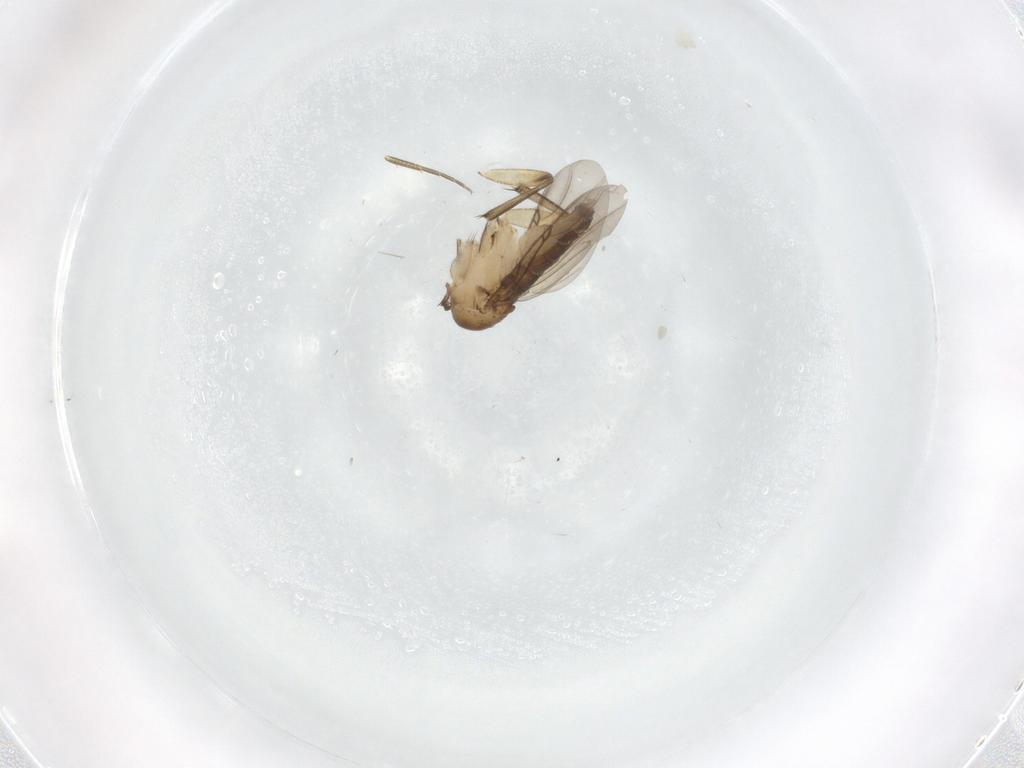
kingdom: Animalia
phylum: Arthropoda
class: Insecta
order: Diptera
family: Phoridae
